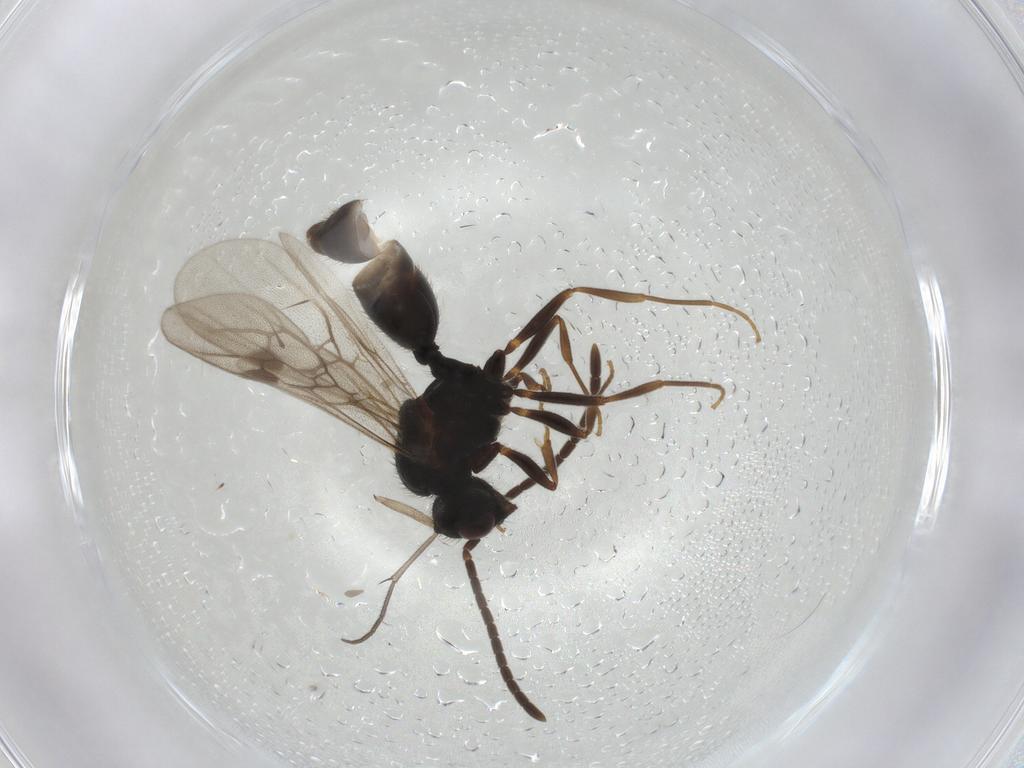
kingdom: Animalia
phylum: Arthropoda
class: Insecta
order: Hymenoptera
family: Formicidae
